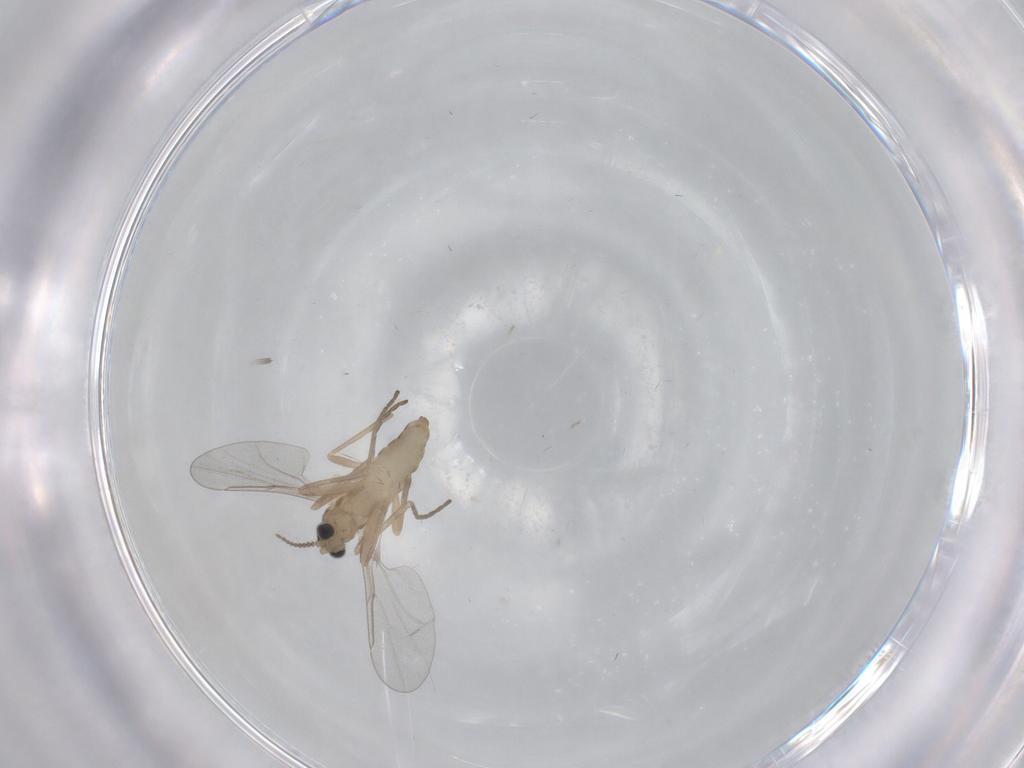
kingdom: Animalia
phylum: Arthropoda
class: Insecta
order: Diptera
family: Cecidomyiidae
